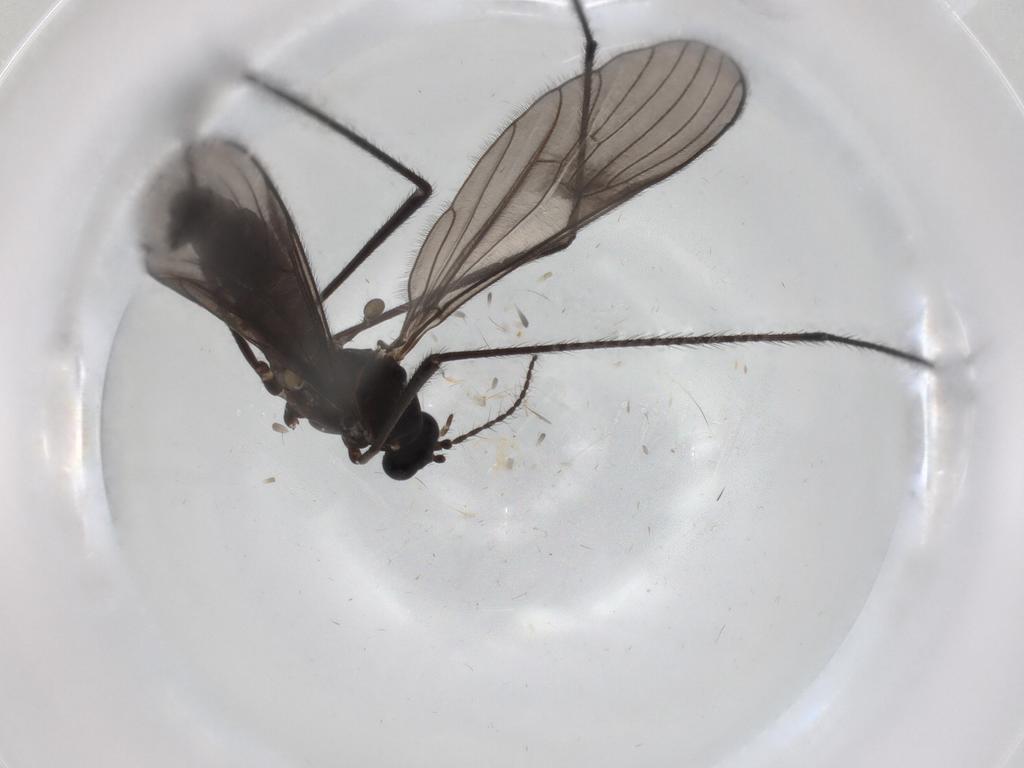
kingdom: Animalia
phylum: Arthropoda
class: Insecta
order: Diptera
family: Limoniidae
